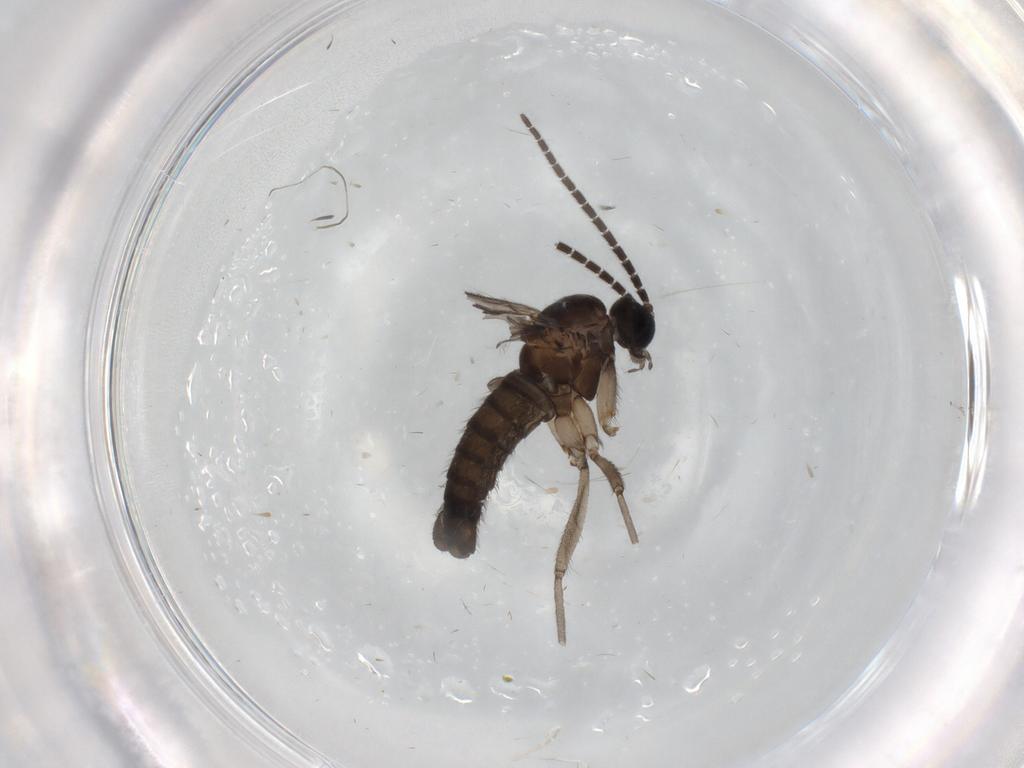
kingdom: Animalia
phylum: Arthropoda
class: Insecta
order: Diptera
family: Sciaridae
